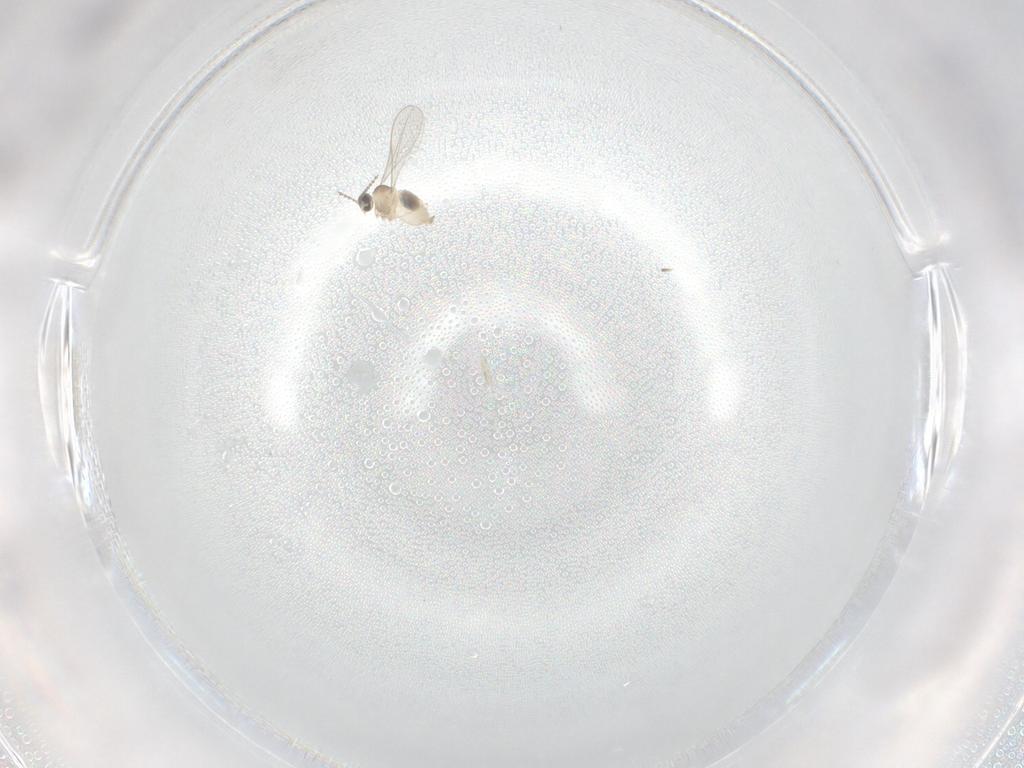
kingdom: Animalia
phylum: Arthropoda
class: Insecta
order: Diptera
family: Psychodidae
